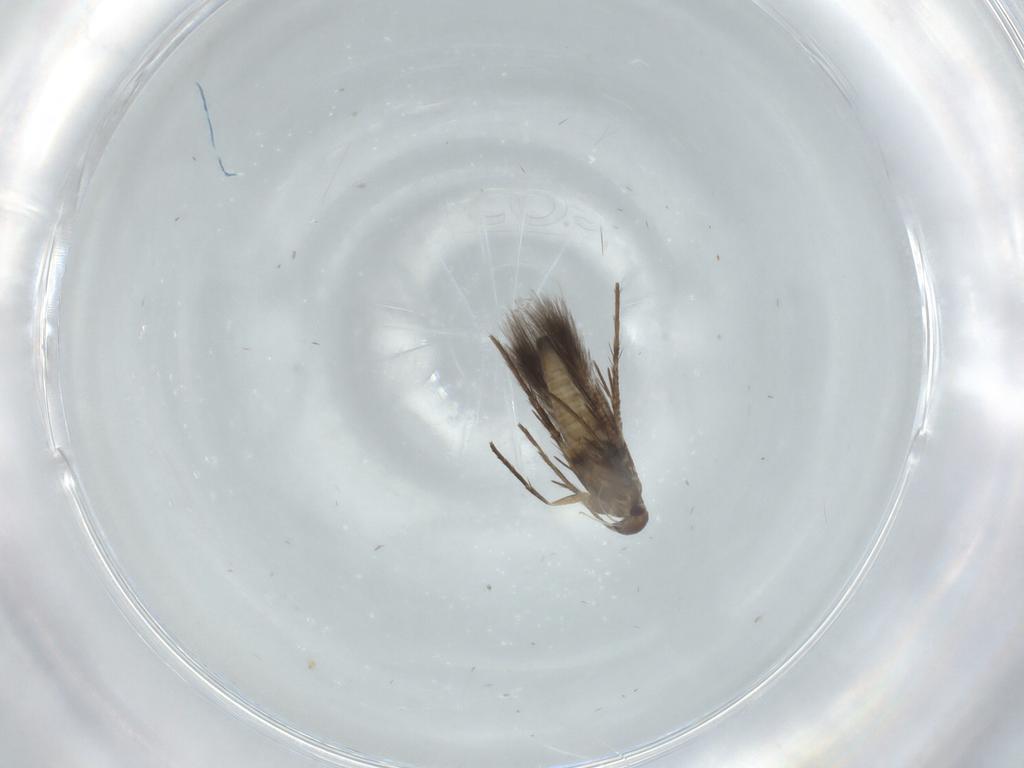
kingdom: Animalia
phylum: Arthropoda
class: Insecta
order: Lepidoptera
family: Pyralidae
